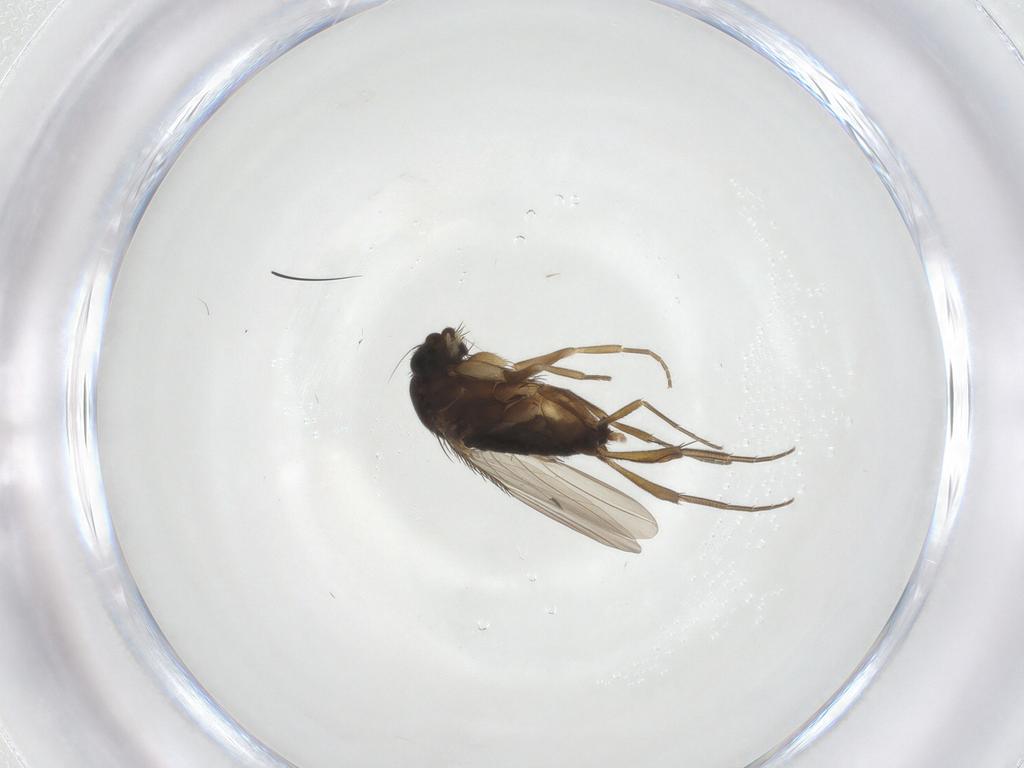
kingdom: Animalia
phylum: Arthropoda
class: Insecta
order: Diptera
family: Phoridae
